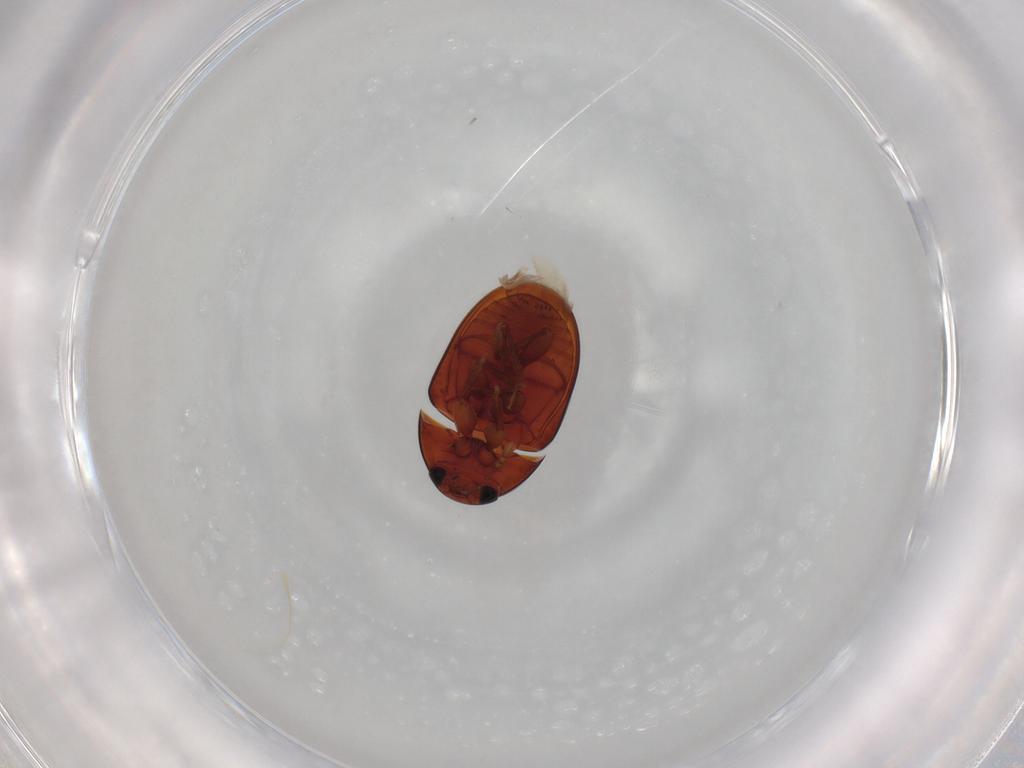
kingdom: Animalia
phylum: Arthropoda
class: Insecta
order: Coleoptera
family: Phalacridae
